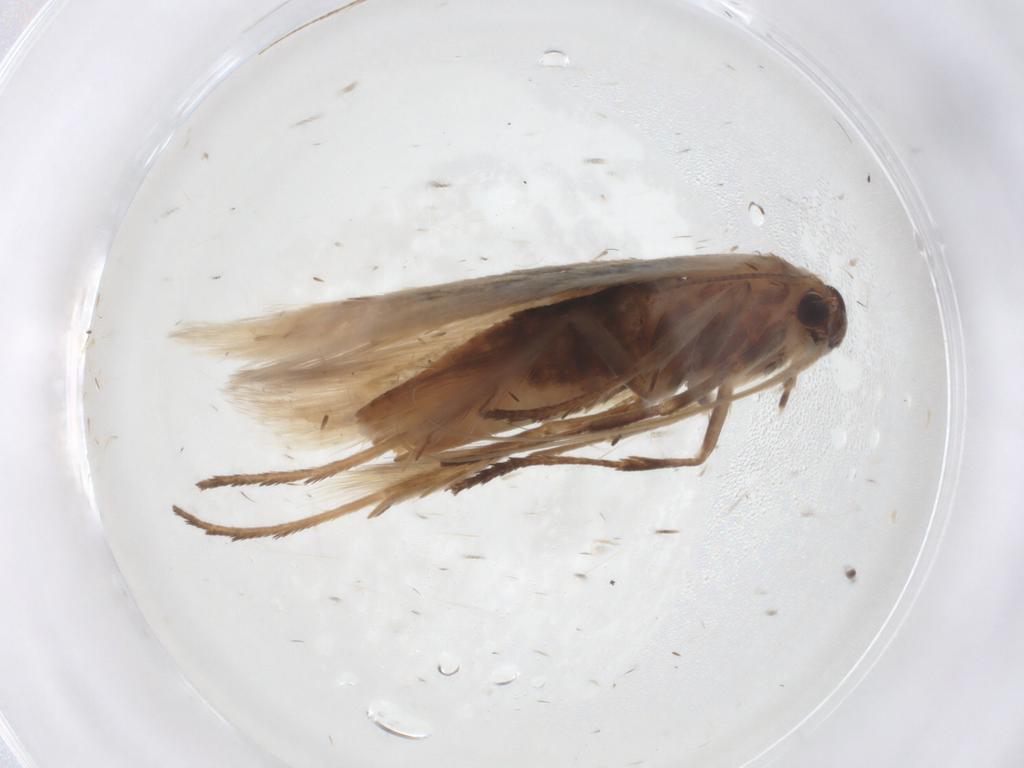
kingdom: Animalia
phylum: Arthropoda
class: Insecta
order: Lepidoptera
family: Scythrididae
